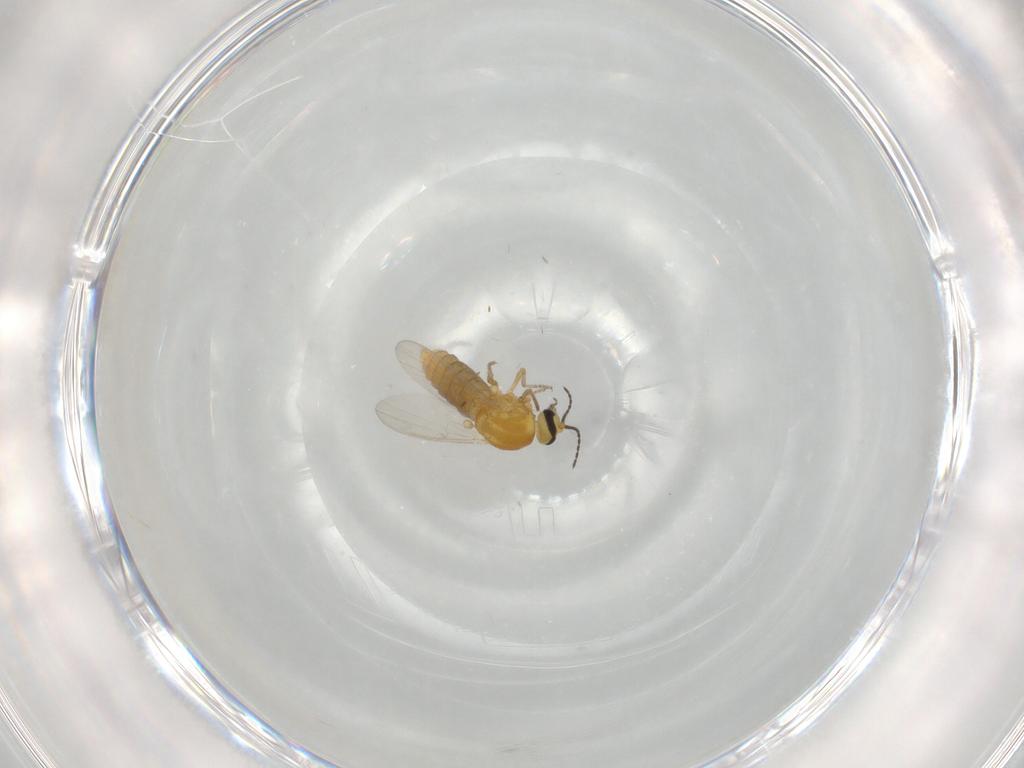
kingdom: Animalia
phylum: Arthropoda
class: Insecta
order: Diptera
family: Ceratopogonidae
